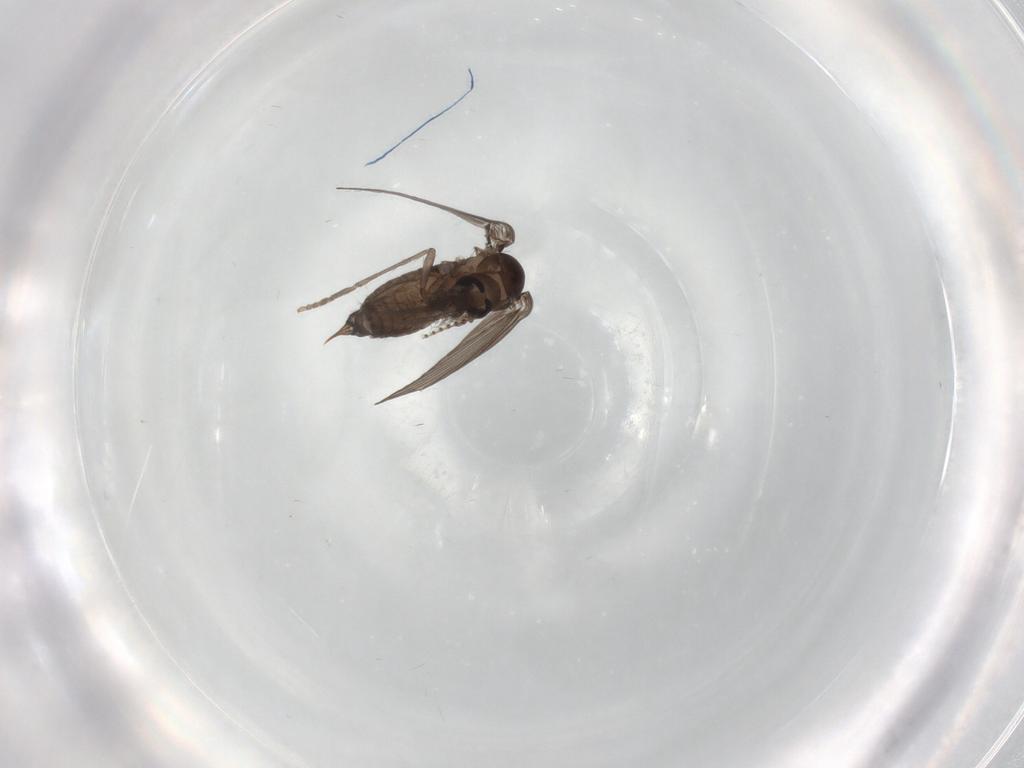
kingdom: Animalia
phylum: Arthropoda
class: Insecta
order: Diptera
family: Psychodidae
